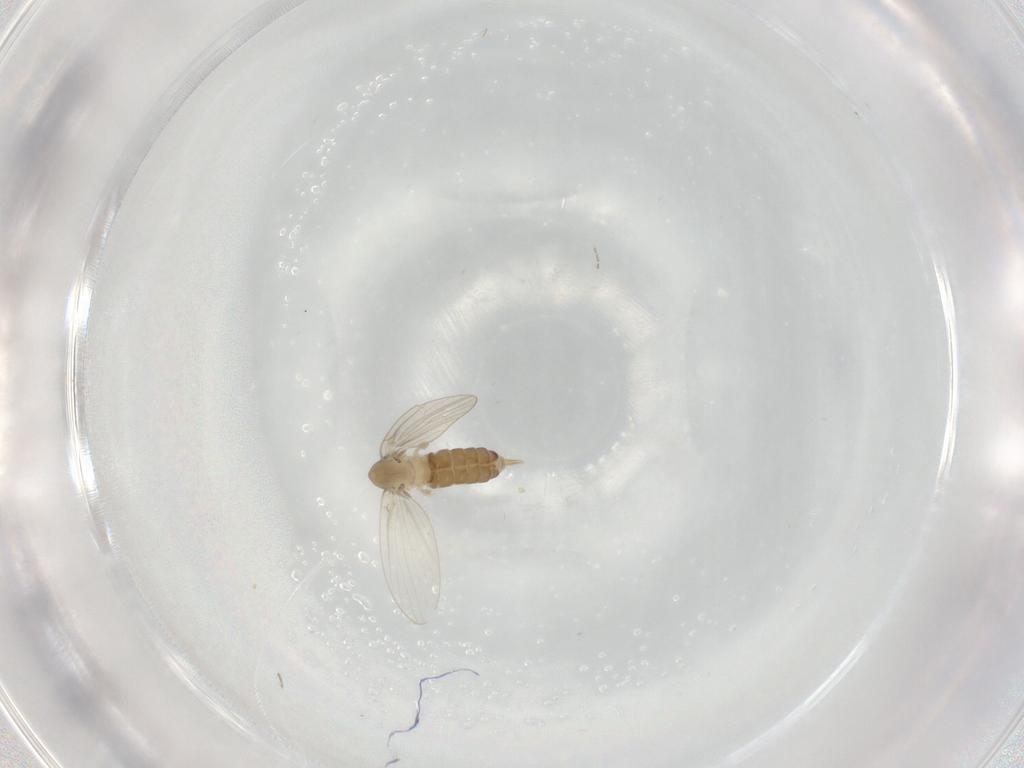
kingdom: Animalia
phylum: Arthropoda
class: Insecta
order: Diptera
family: Psychodidae
